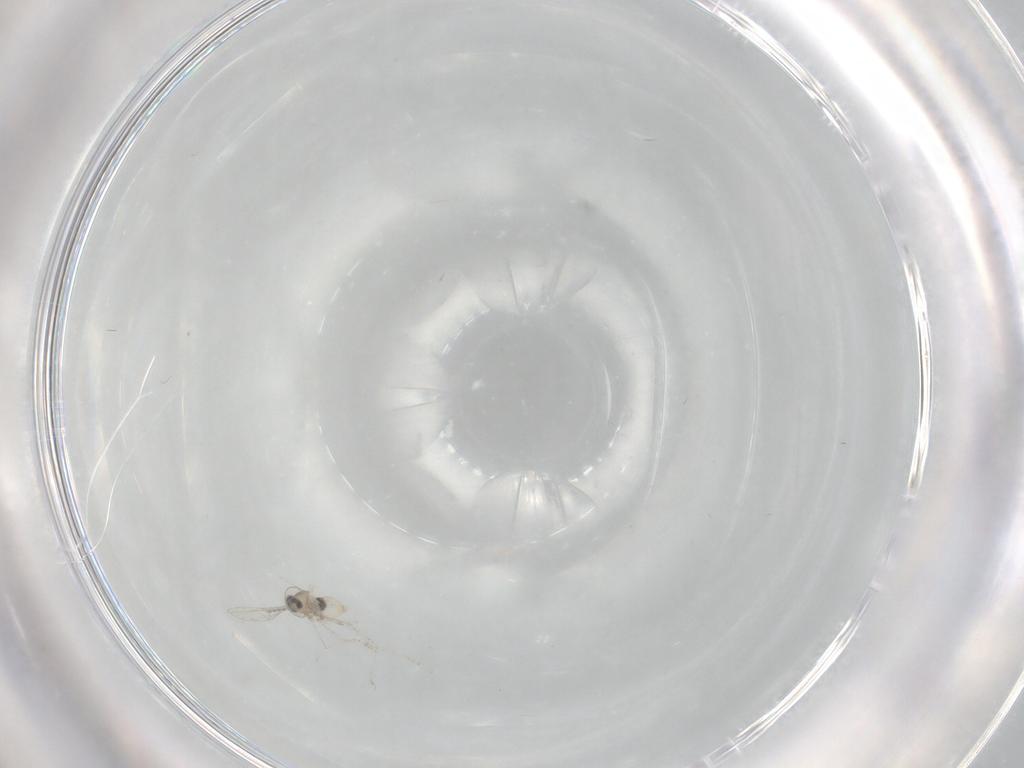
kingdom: Animalia
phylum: Arthropoda
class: Insecta
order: Diptera
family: Cecidomyiidae
